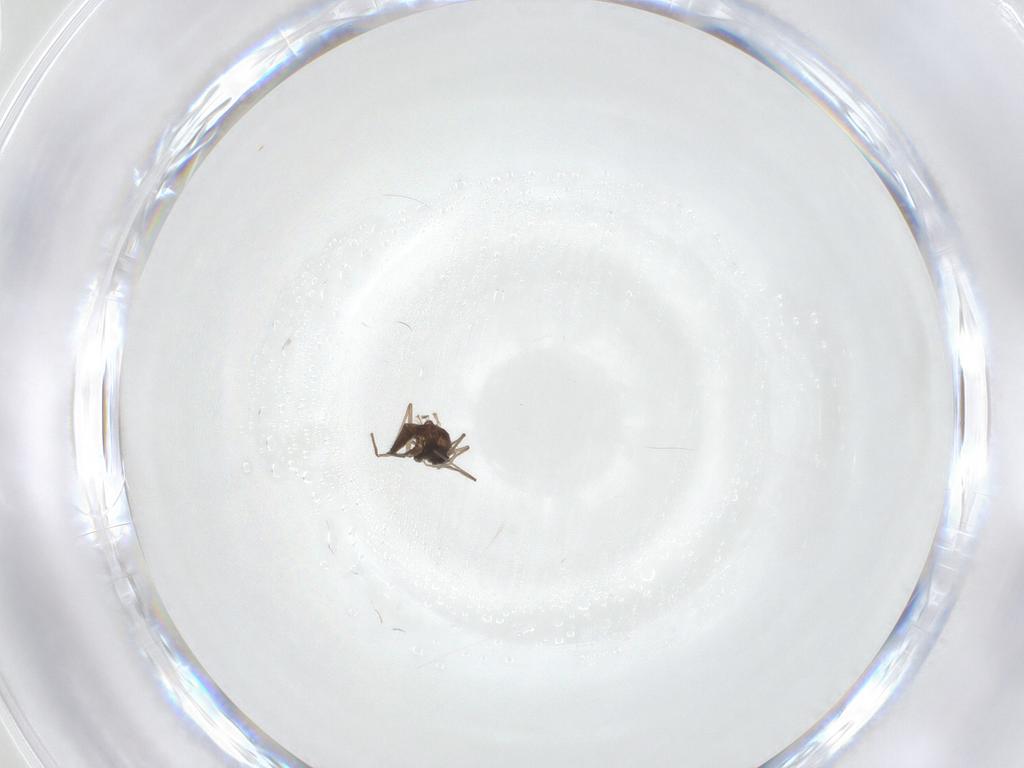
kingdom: Animalia
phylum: Arthropoda
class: Insecta
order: Diptera
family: Chironomidae
